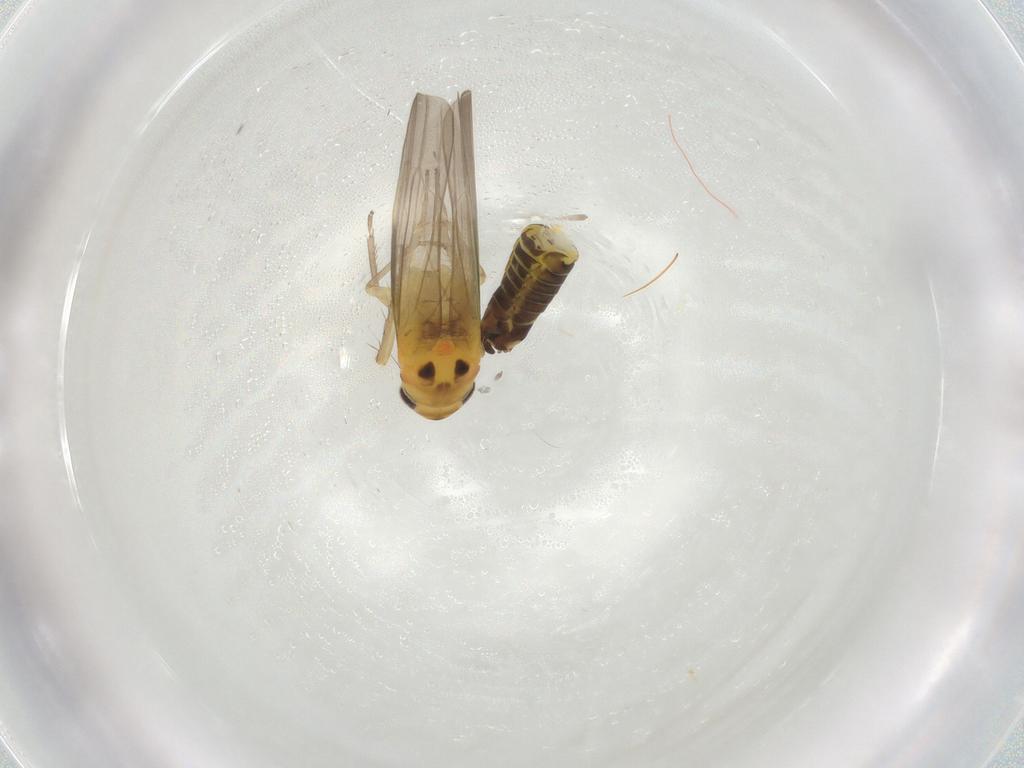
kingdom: Animalia
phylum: Arthropoda
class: Insecta
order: Hemiptera
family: Cicadellidae
